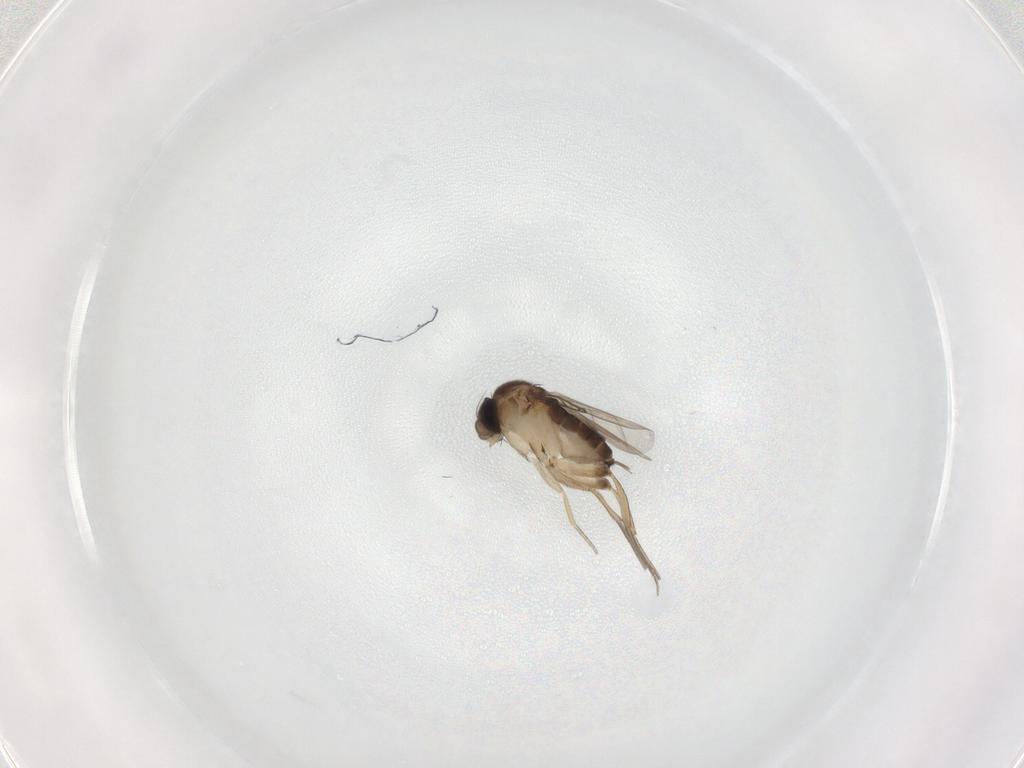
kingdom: Animalia
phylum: Arthropoda
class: Insecta
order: Diptera
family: Phoridae
